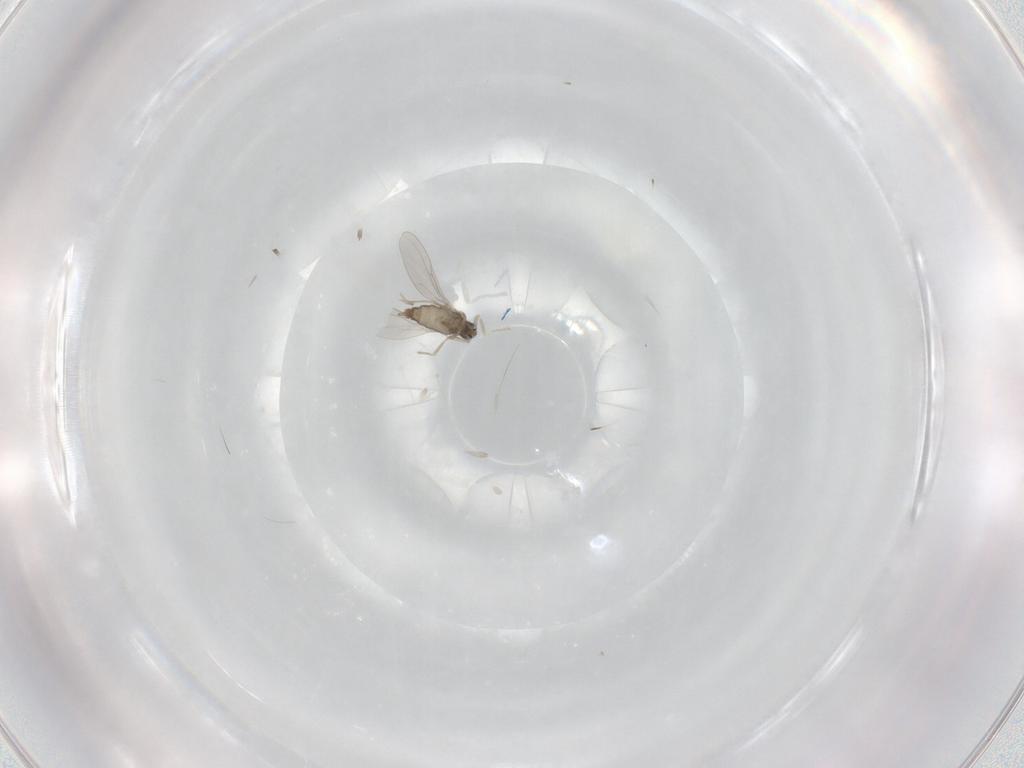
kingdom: Animalia
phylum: Arthropoda
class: Insecta
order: Diptera
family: Cecidomyiidae
